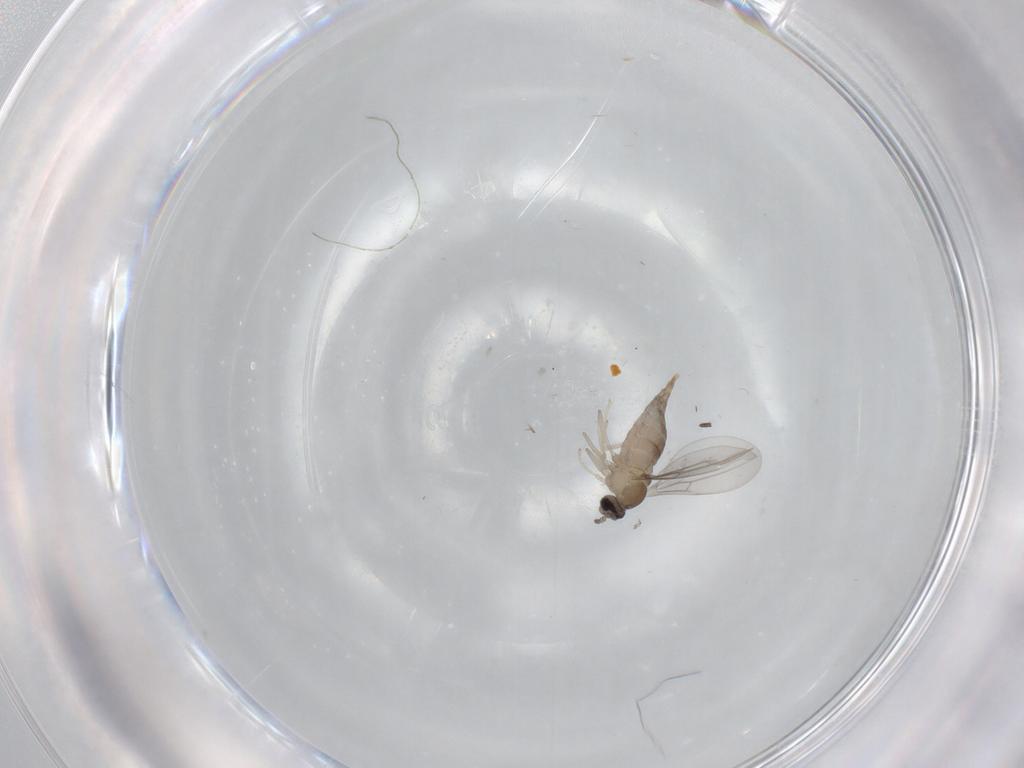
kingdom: Animalia
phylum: Arthropoda
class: Insecta
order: Diptera
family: Cecidomyiidae
